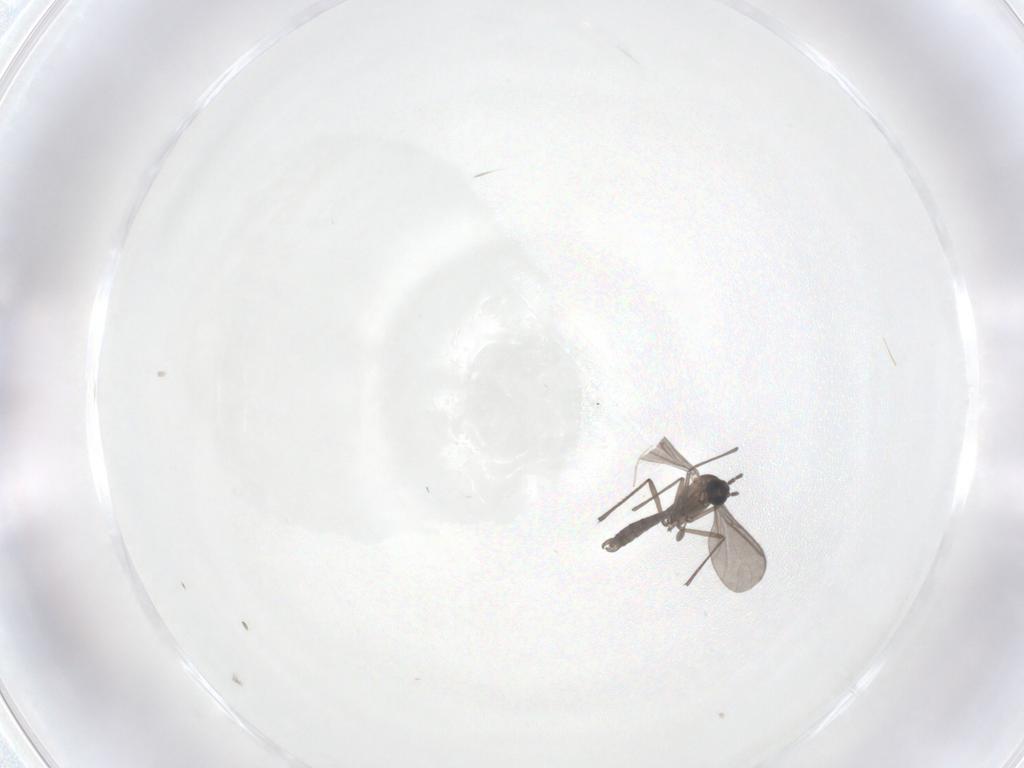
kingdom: Animalia
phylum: Arthropoda
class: Insecta
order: Diptera
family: Sciaridae
